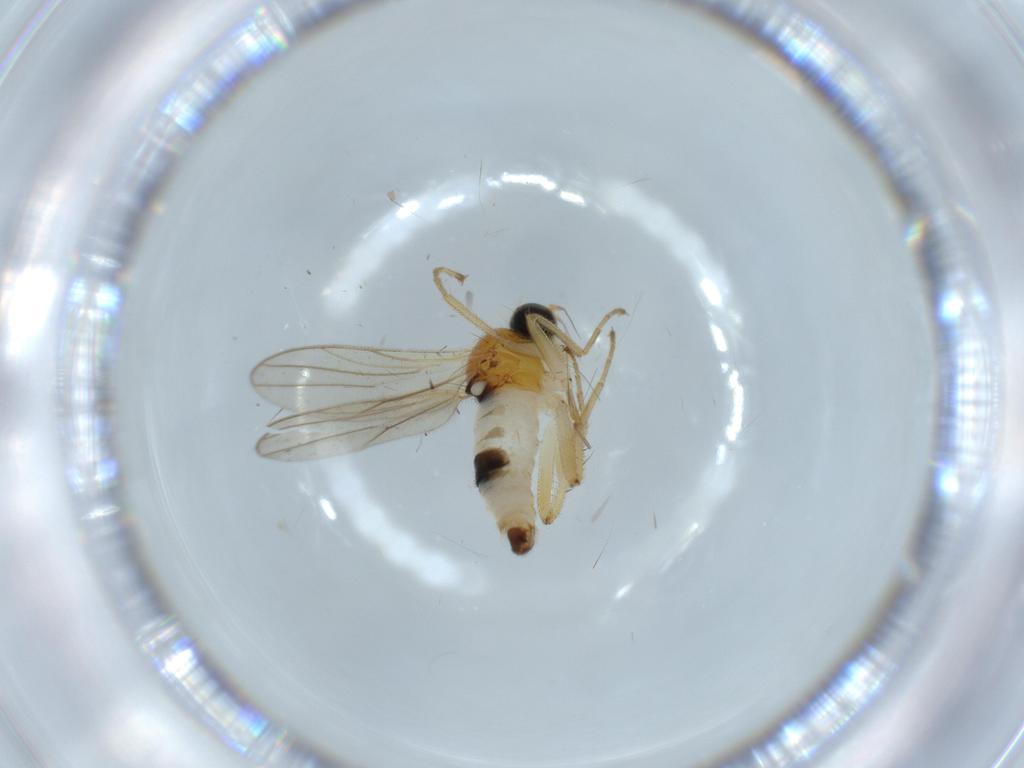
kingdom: Animalia
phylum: Arthropoda
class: Insecta
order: Diptera
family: Hybotidae
